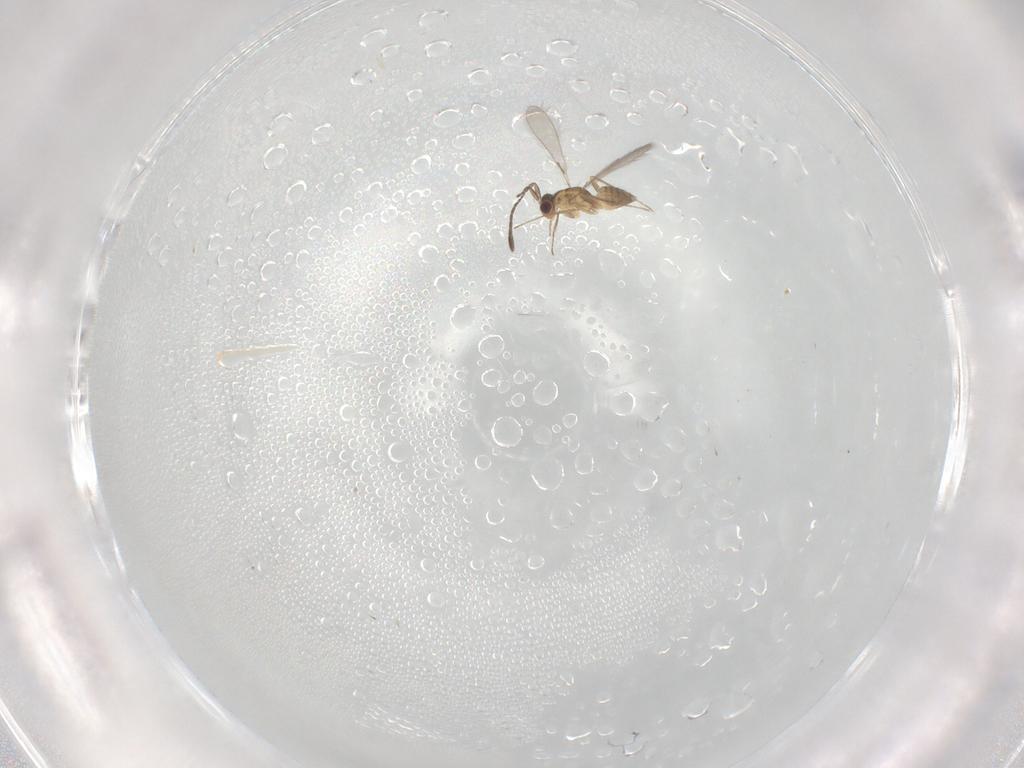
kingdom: Animalia
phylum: Arthropoda
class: Insecta
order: Hymenoptera
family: Mymaridae
